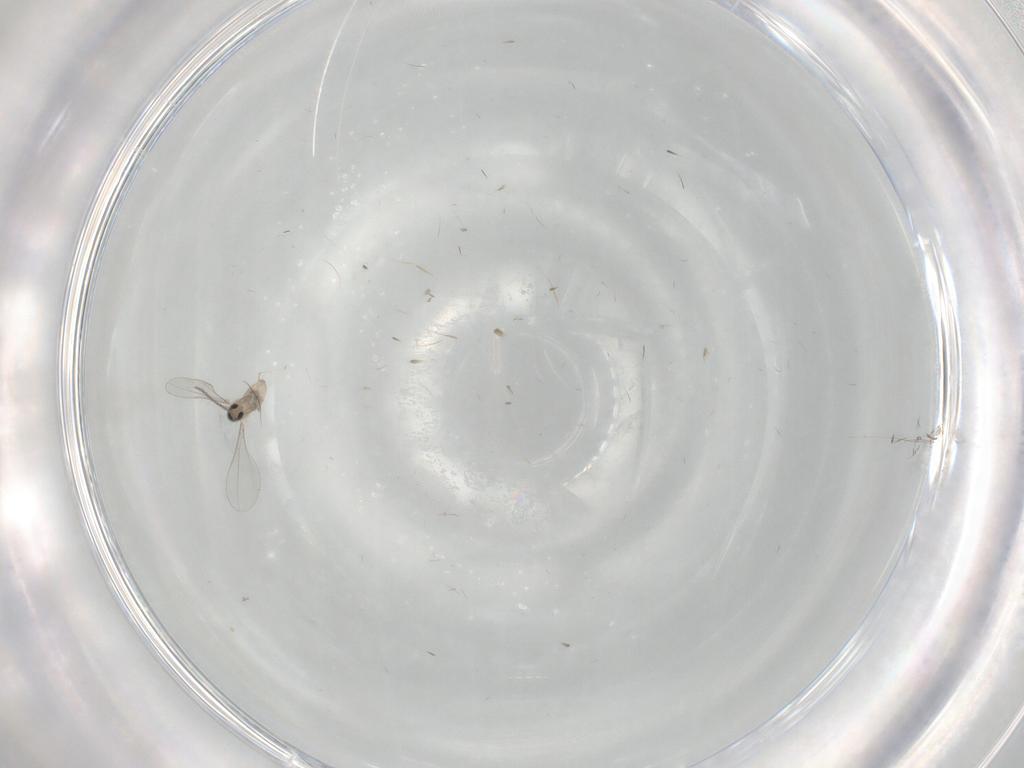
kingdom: Animalia
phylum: Arthropoda
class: Insecta
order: Diptera
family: Cecidomyiidae
